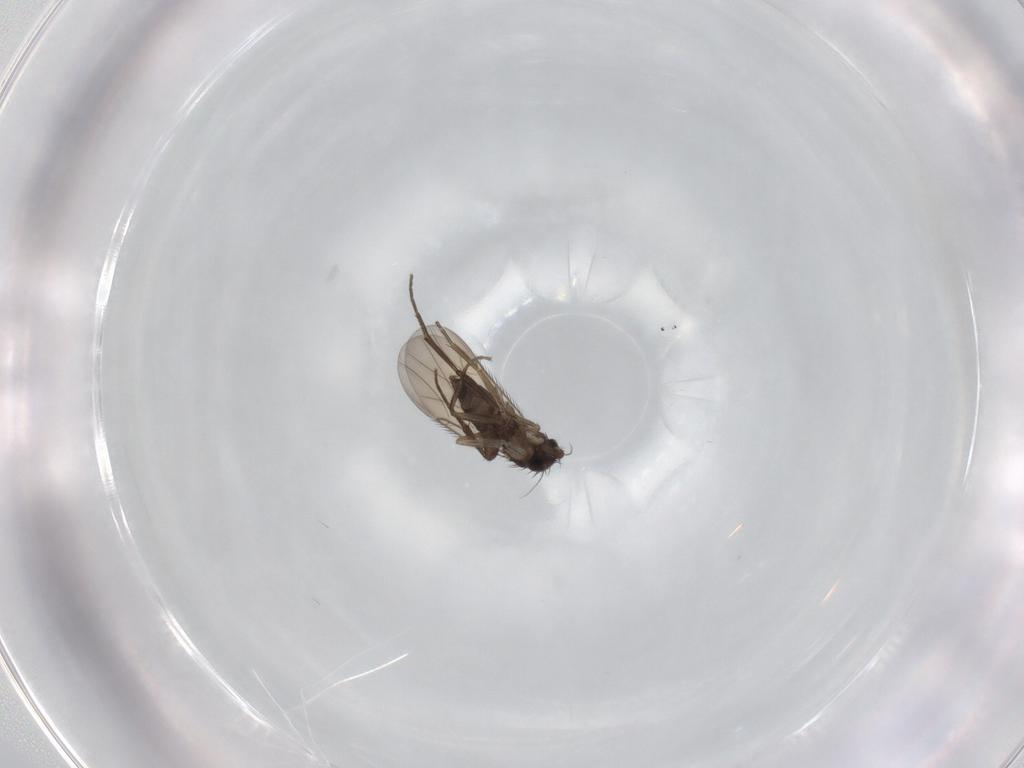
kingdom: Animalia
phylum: Arthropoda
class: Insecta
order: Diptera
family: Phoridae
